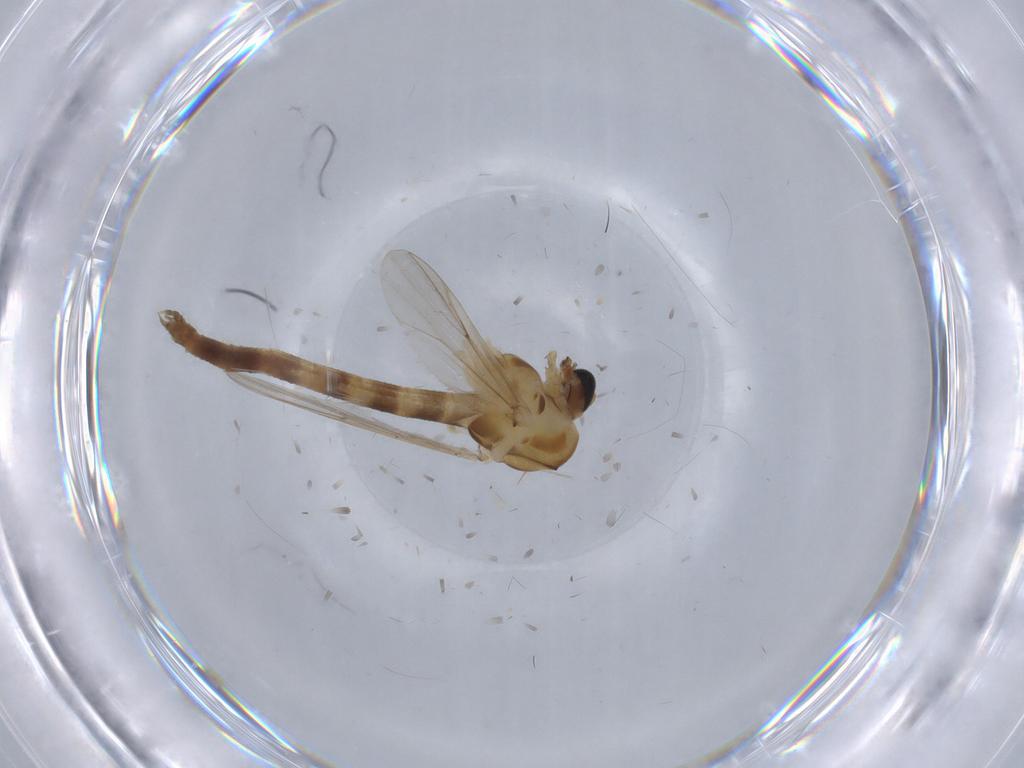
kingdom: Animalia
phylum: Arthropoda
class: Insecta
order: Diptera
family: Chironomidae
